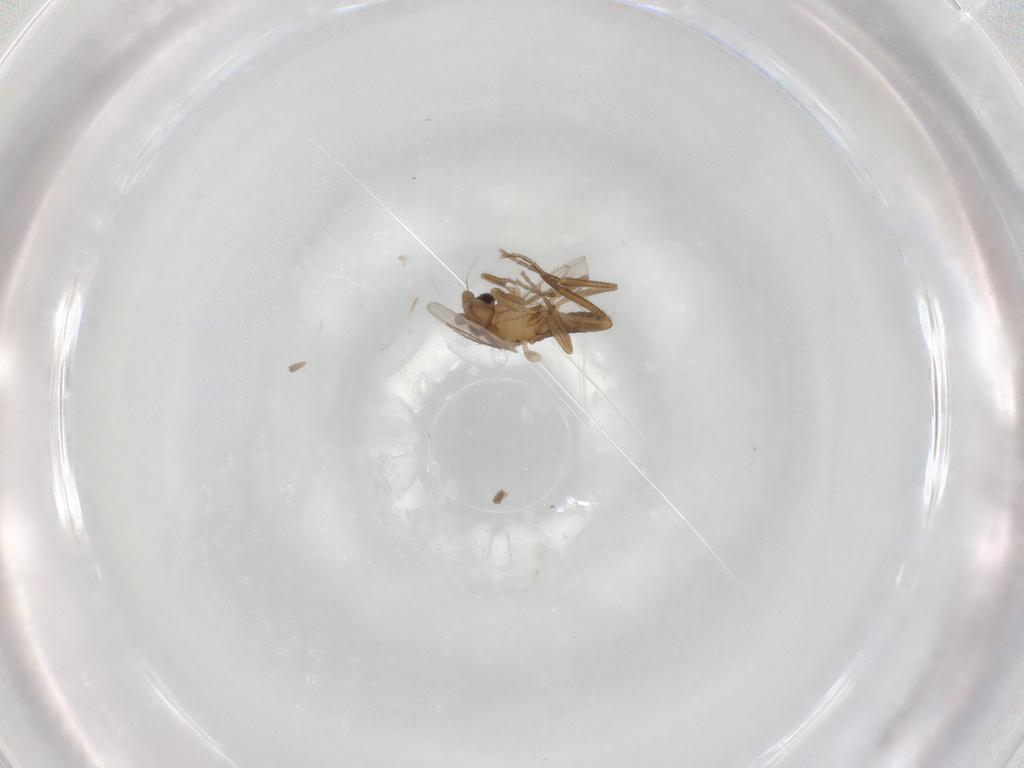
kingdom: Animalia
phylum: Arthropoda
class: Insecta
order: Diptera
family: Phoridae
